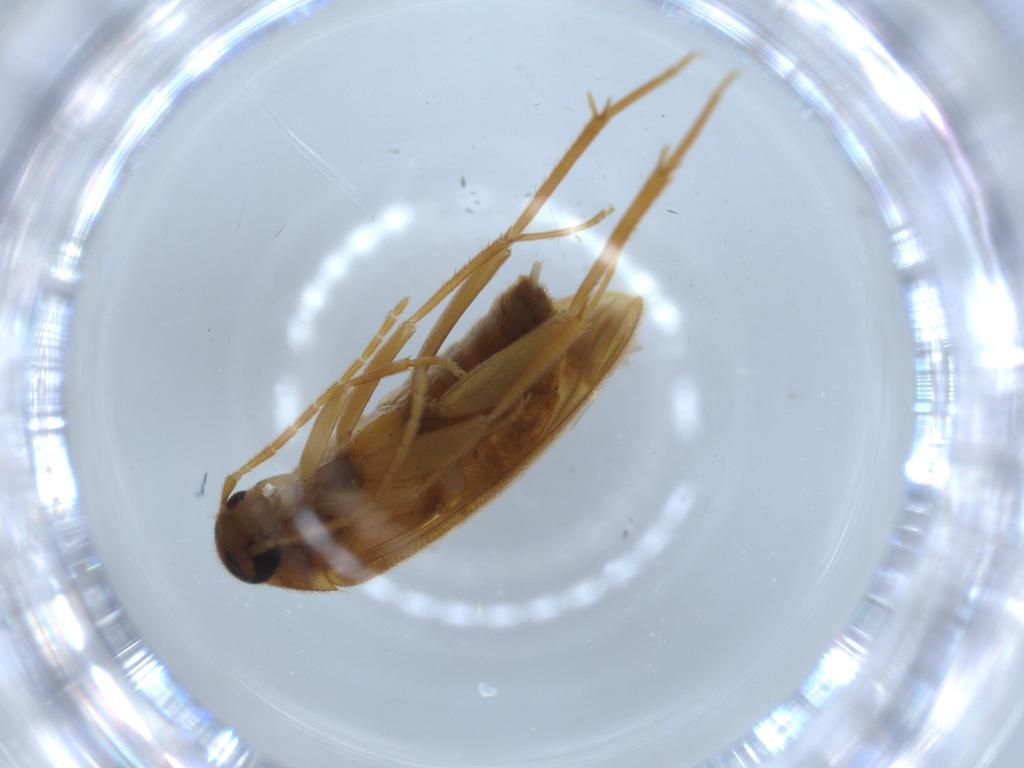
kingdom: Animalia
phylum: Arthropoda
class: Insecta
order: Coleoptera
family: Scraptiidae
